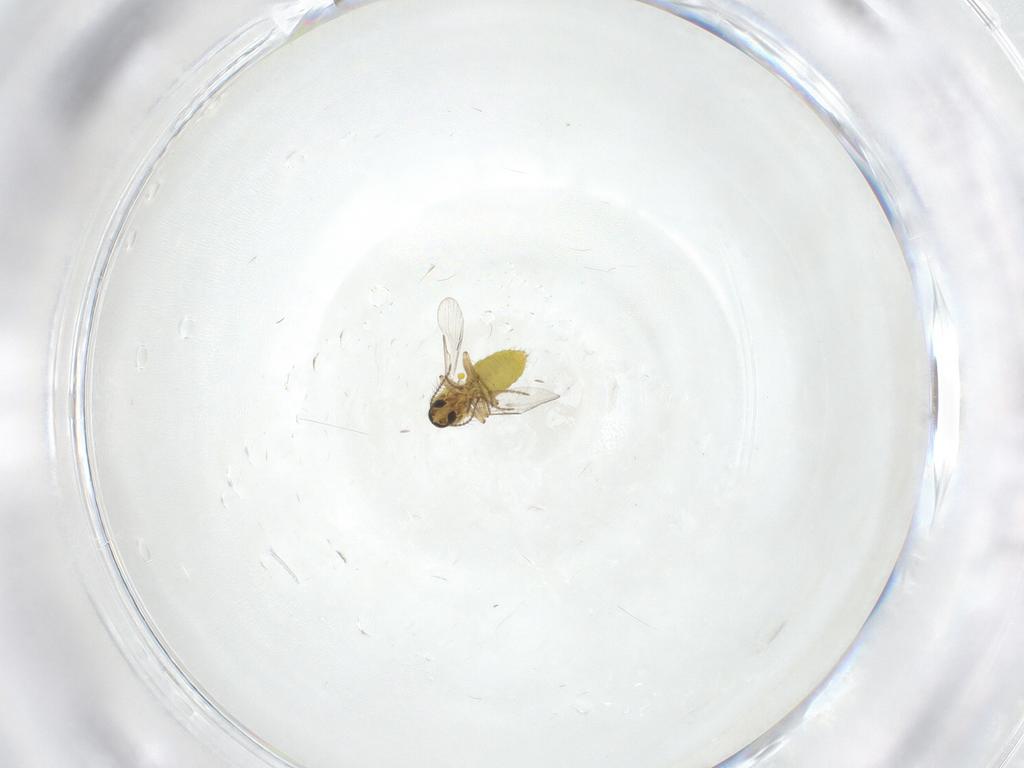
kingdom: Animalia
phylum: Arthropoda
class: Insecta
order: Diptera
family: Ceratopogonidae
